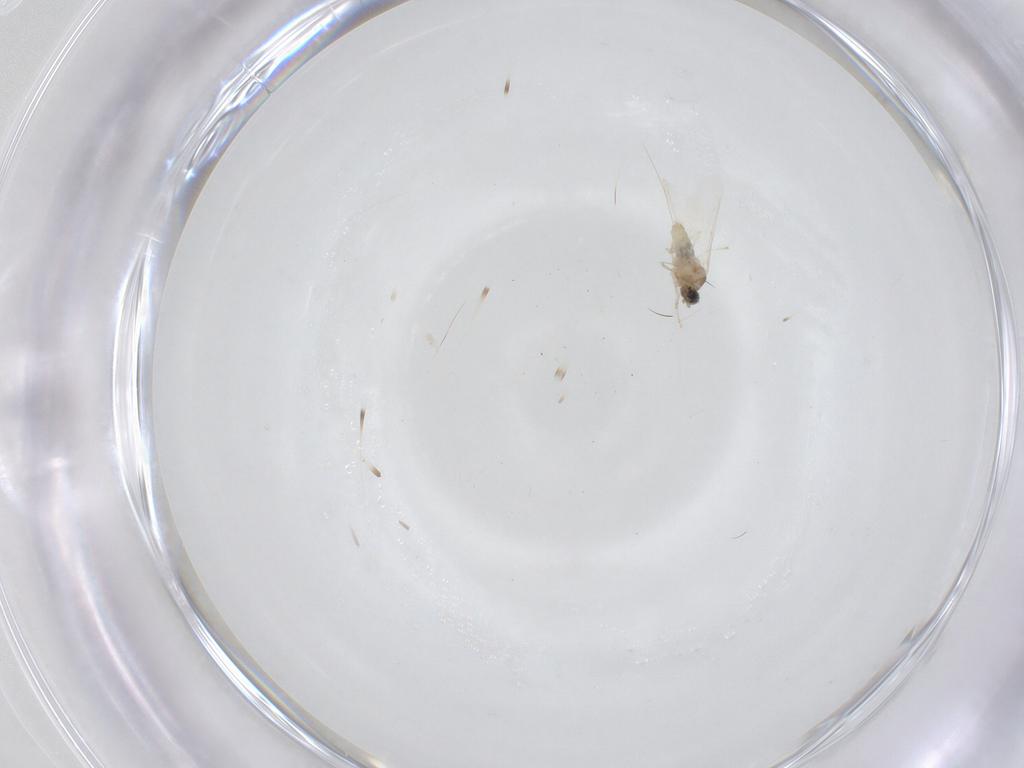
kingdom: Animalia
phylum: Arthropoda
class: Insecta
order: Diptera
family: Cecidomyiidae
